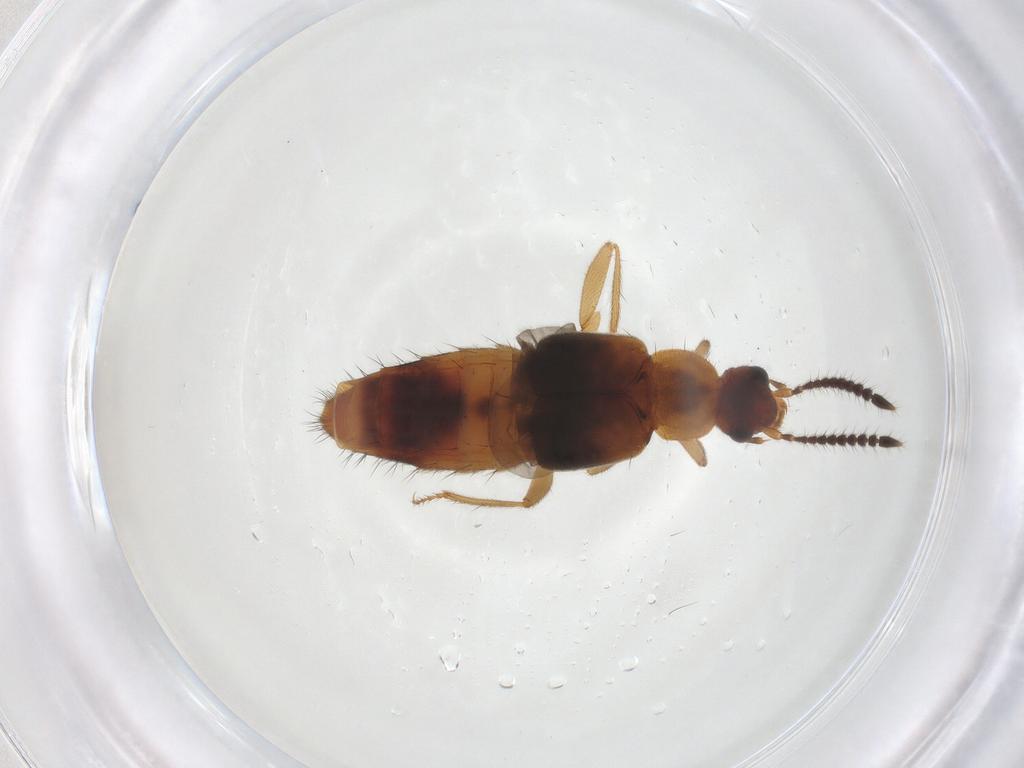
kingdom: Animalia
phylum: Arthropoda
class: Insecta
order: Coleoptera
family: Staphylinidae
